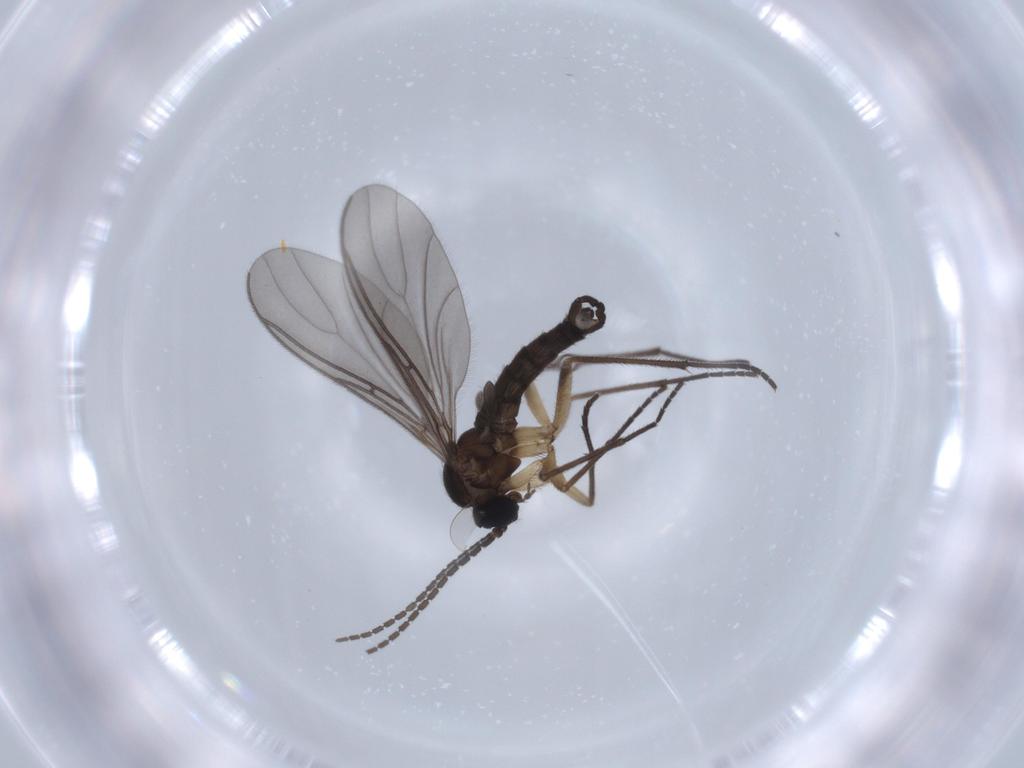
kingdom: Animalia
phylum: Arthropoda
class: Insecta
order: Diptera
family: Sciaridae
